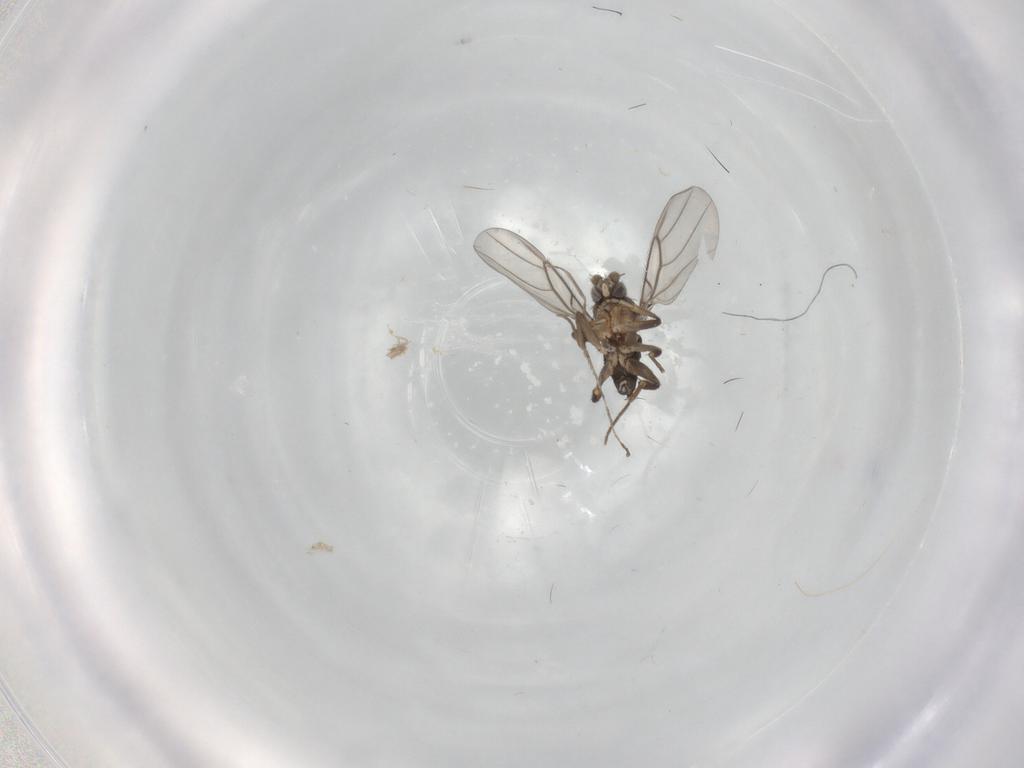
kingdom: Animalia
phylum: Arthropoda
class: Insecta
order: Diptera
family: Phoridae
